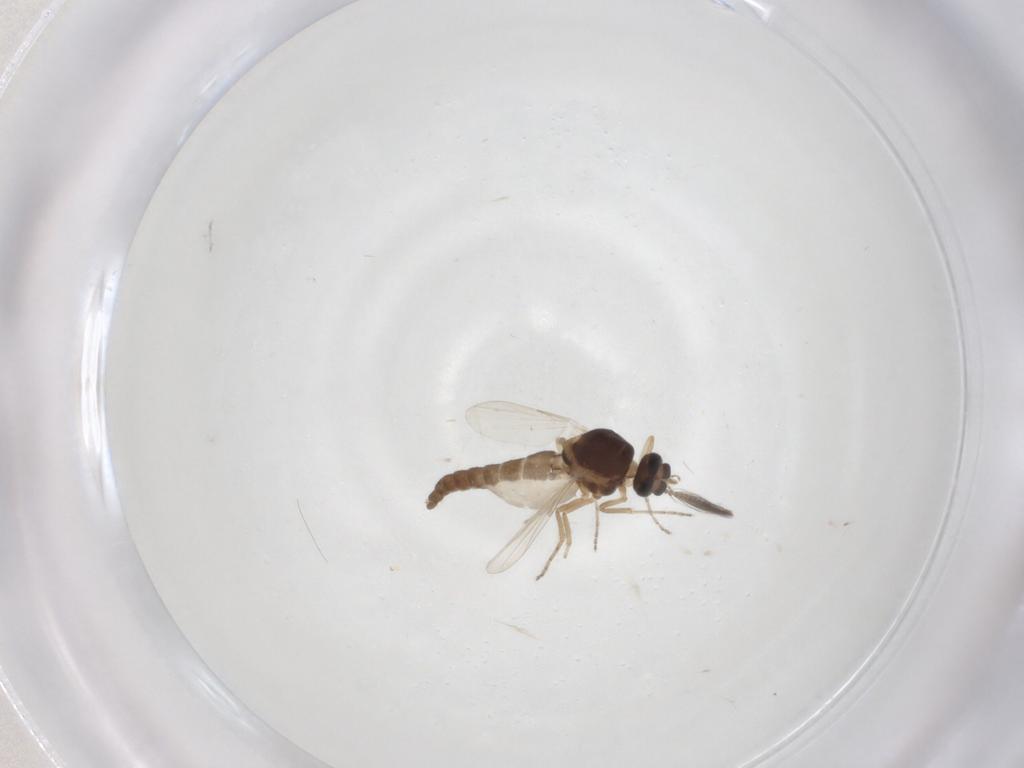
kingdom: Animalia
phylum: Arthropoda
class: Insecta
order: Diptera
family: Ceratopogonidae
